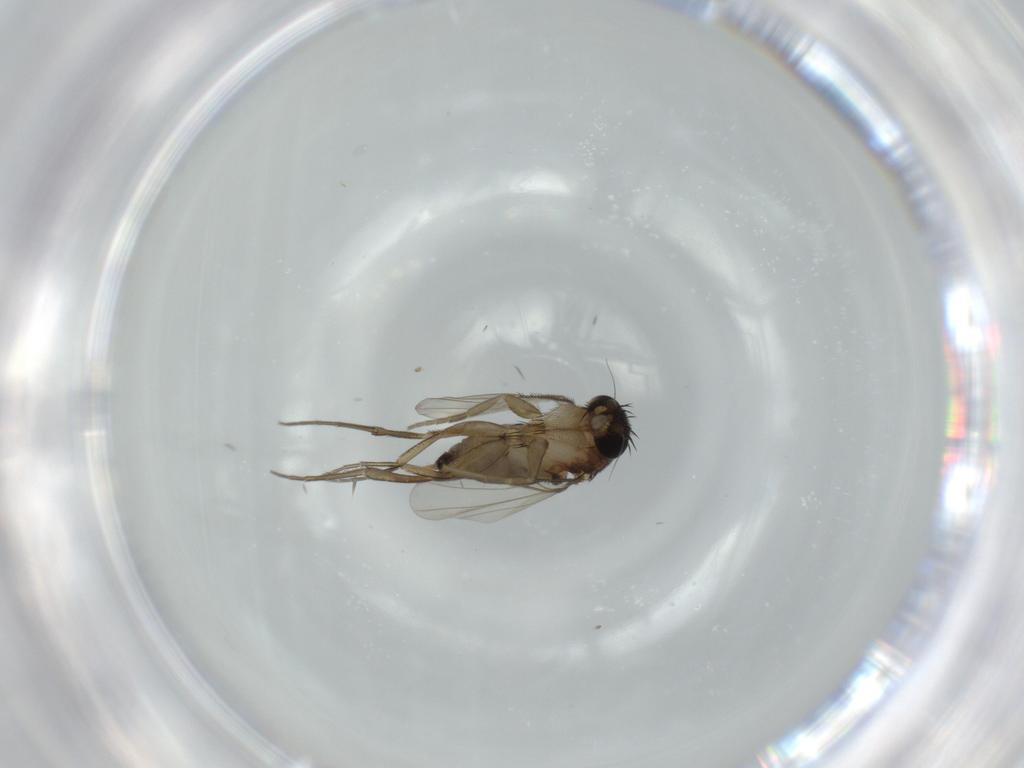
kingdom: Animalia
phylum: Arthropoda
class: Insecta
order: Diptera
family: Phoridae
